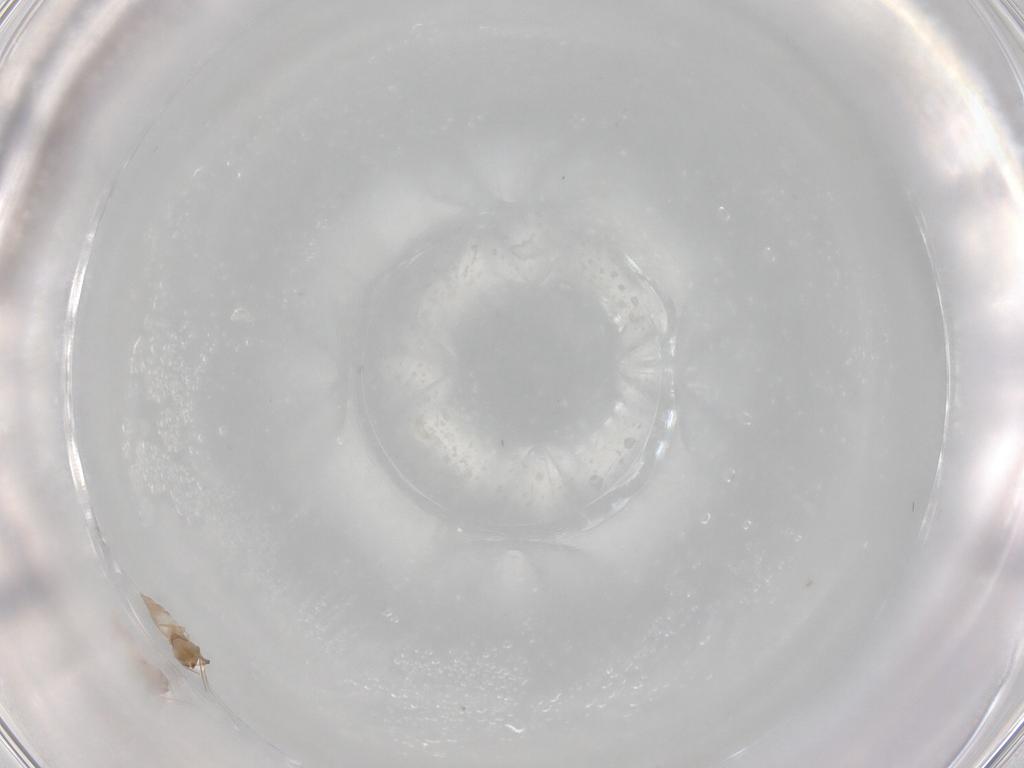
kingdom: Animalia
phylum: Arthropoda
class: Insecta
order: Diptera
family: Cecidomyiidae
